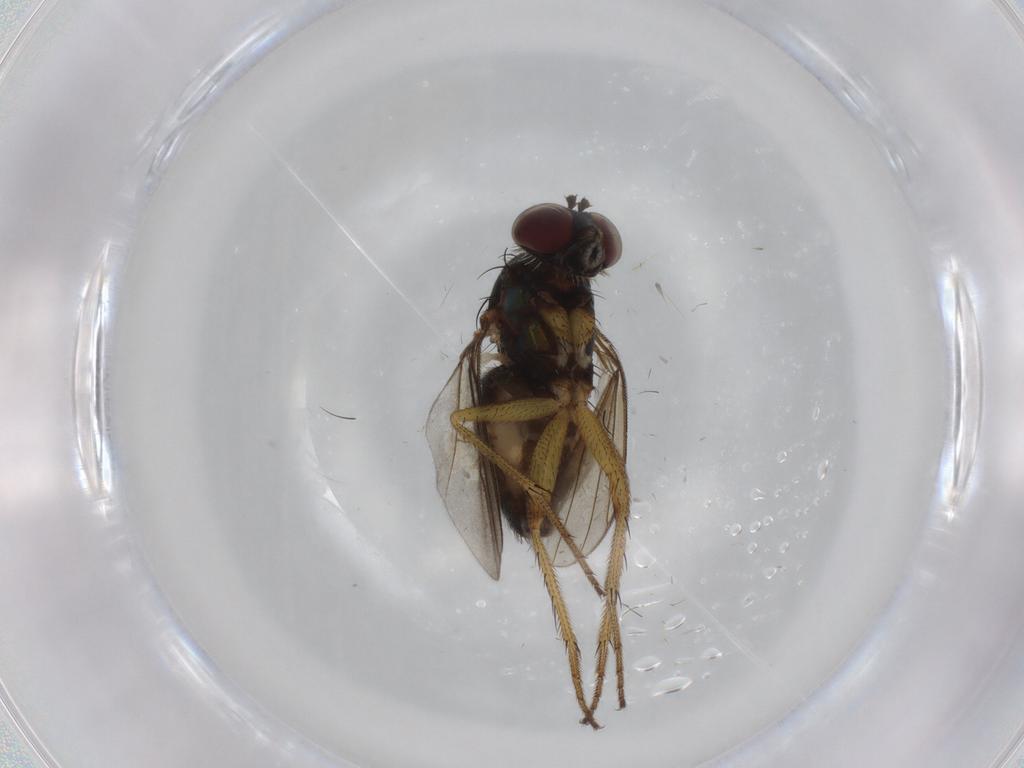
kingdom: Animalia
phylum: Arthropoda
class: Insecta
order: Diptera
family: Dolichopodidae
